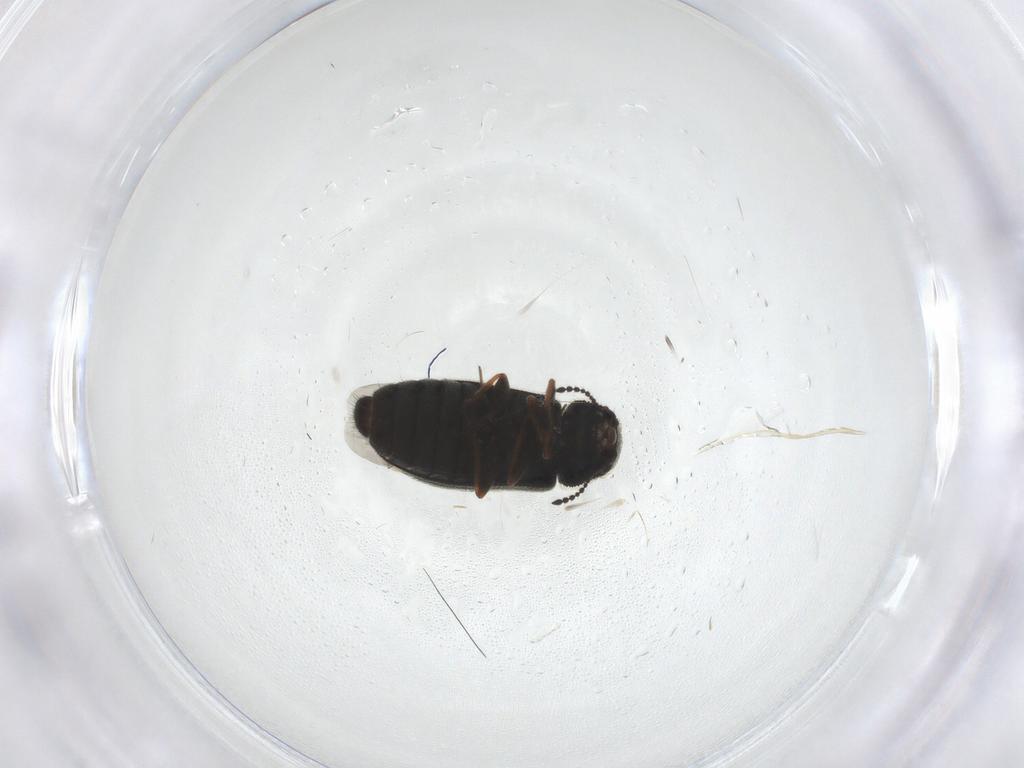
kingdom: Animalia
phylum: Arthropoda
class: Insecta
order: Coleoptera
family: Melyridae
